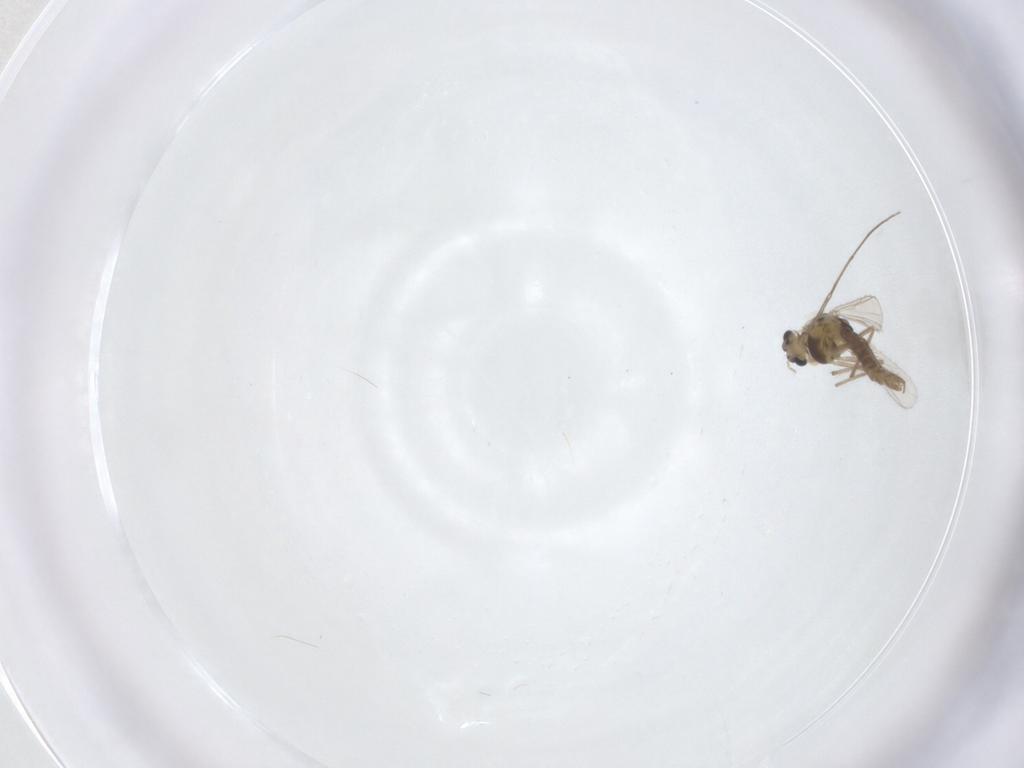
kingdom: Animalia
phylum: Arthropoda
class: Insecta
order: Diptera
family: Chironomidae
